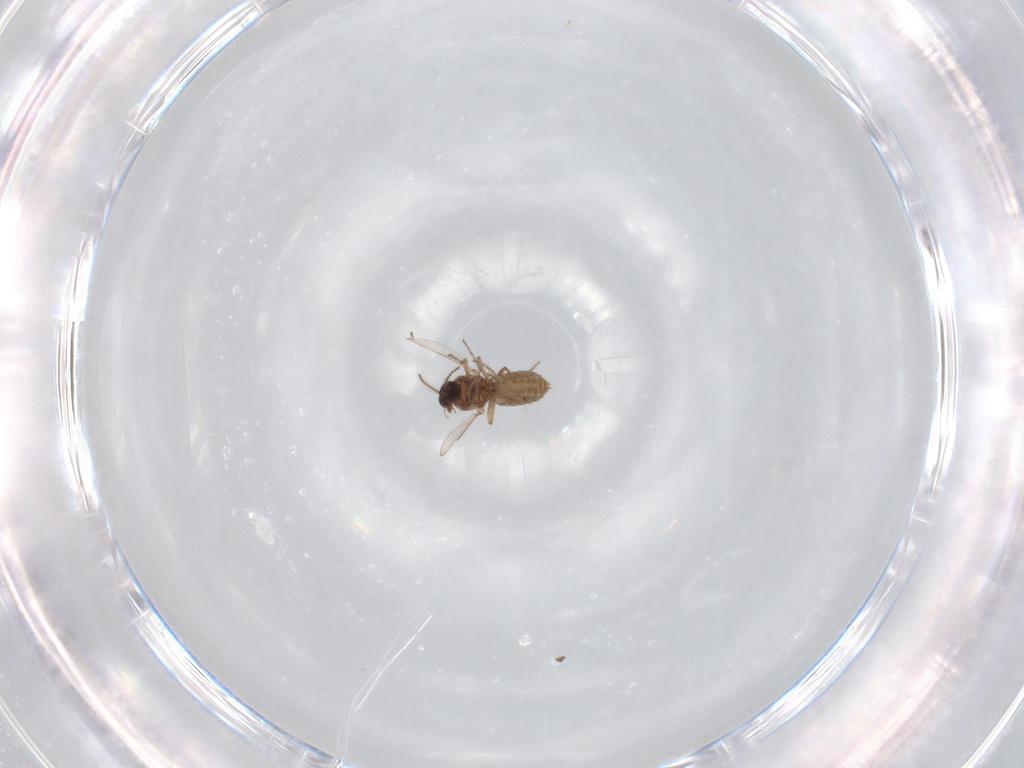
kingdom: Animalia
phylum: Arthropoda
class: Insecta
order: Diptera
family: Ceratopogonidae
